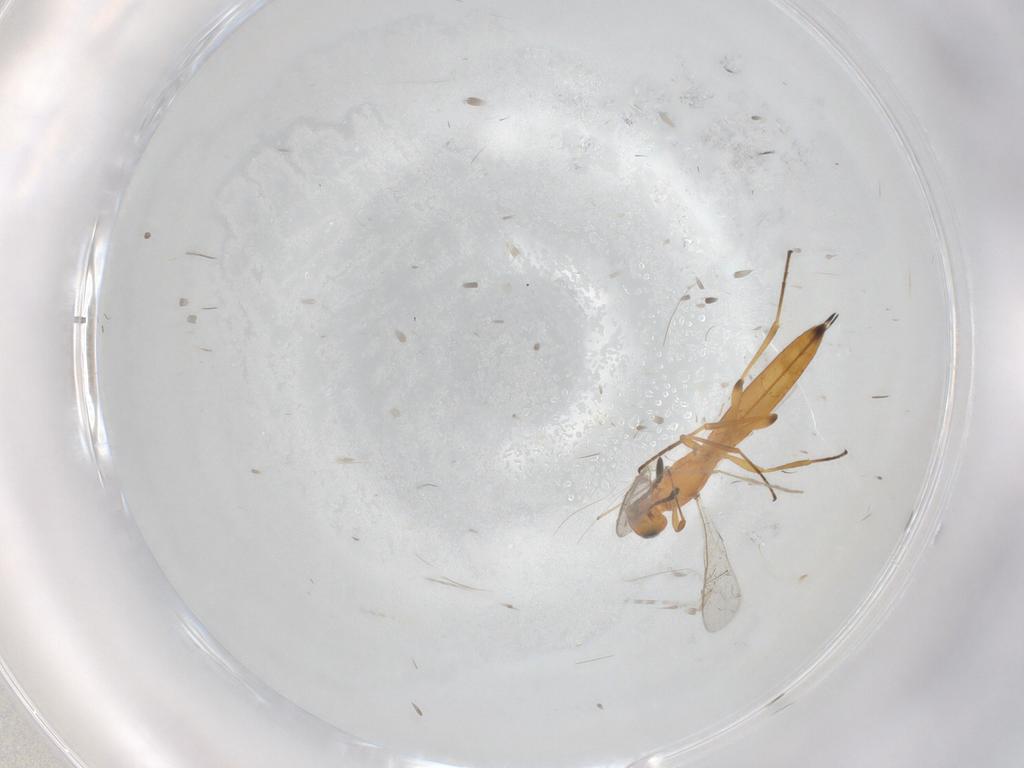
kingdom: Animalia
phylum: Arthropoda
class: Insecta
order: Hymenoptera
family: Scelionidae
